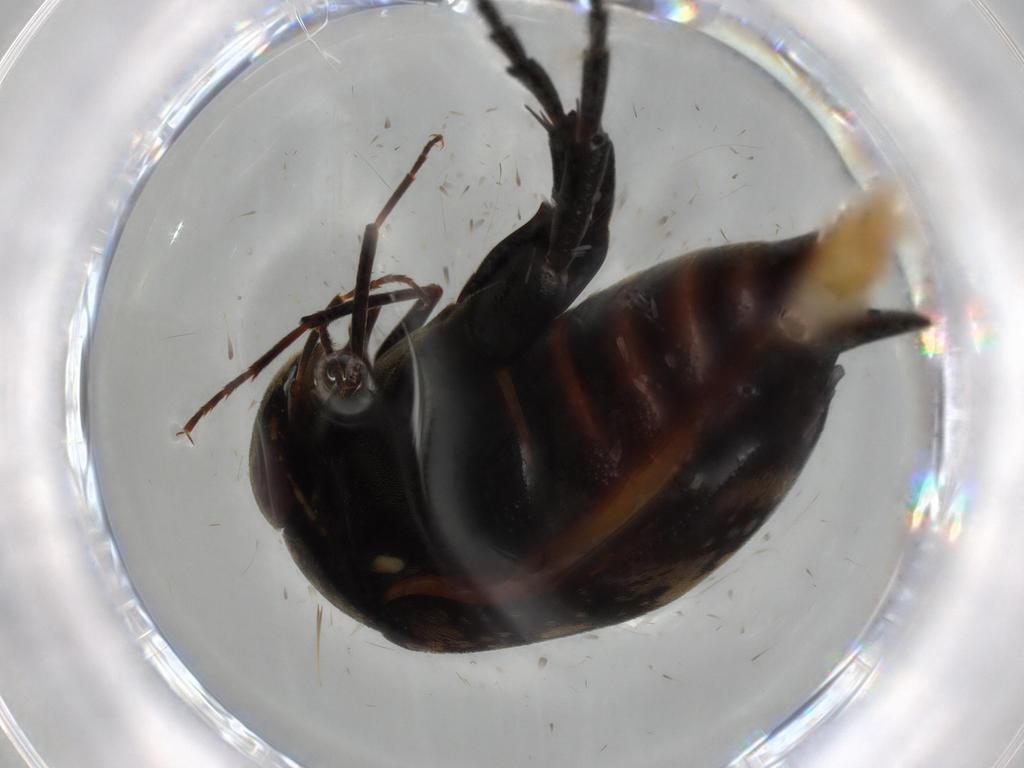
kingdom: Animalia
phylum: Arthropoda
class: Insecta
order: Coleoptera
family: Mordellidae
